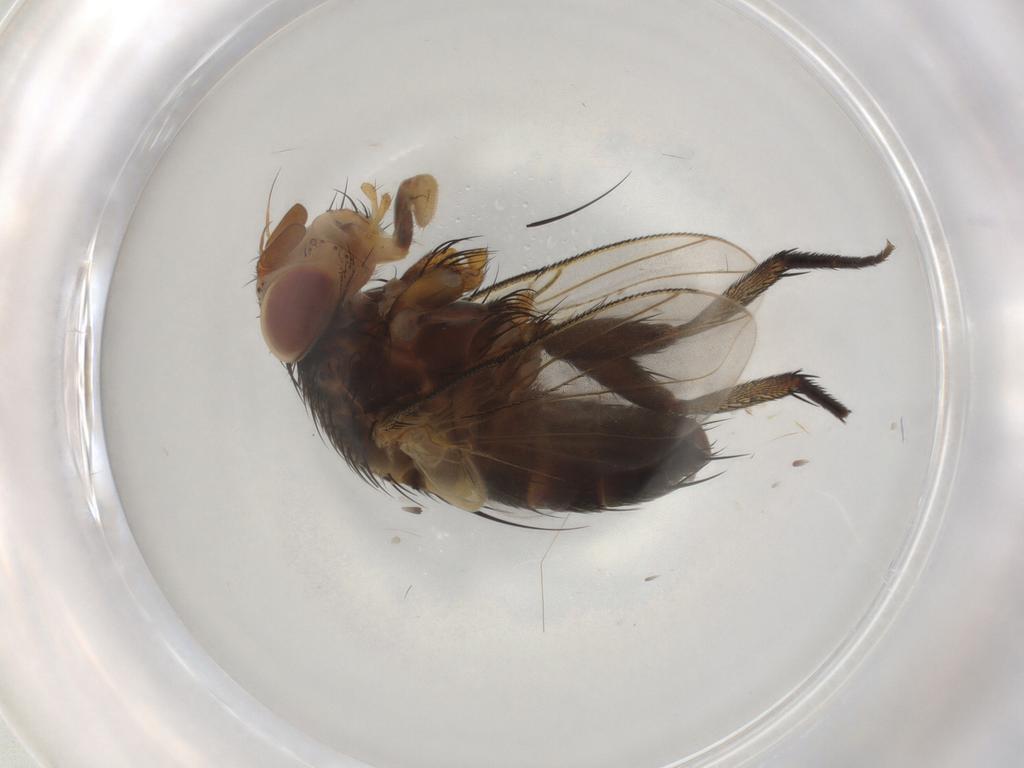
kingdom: Animalia
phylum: Arthropoda
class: Insecta
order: Diptera
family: Tachinidae
